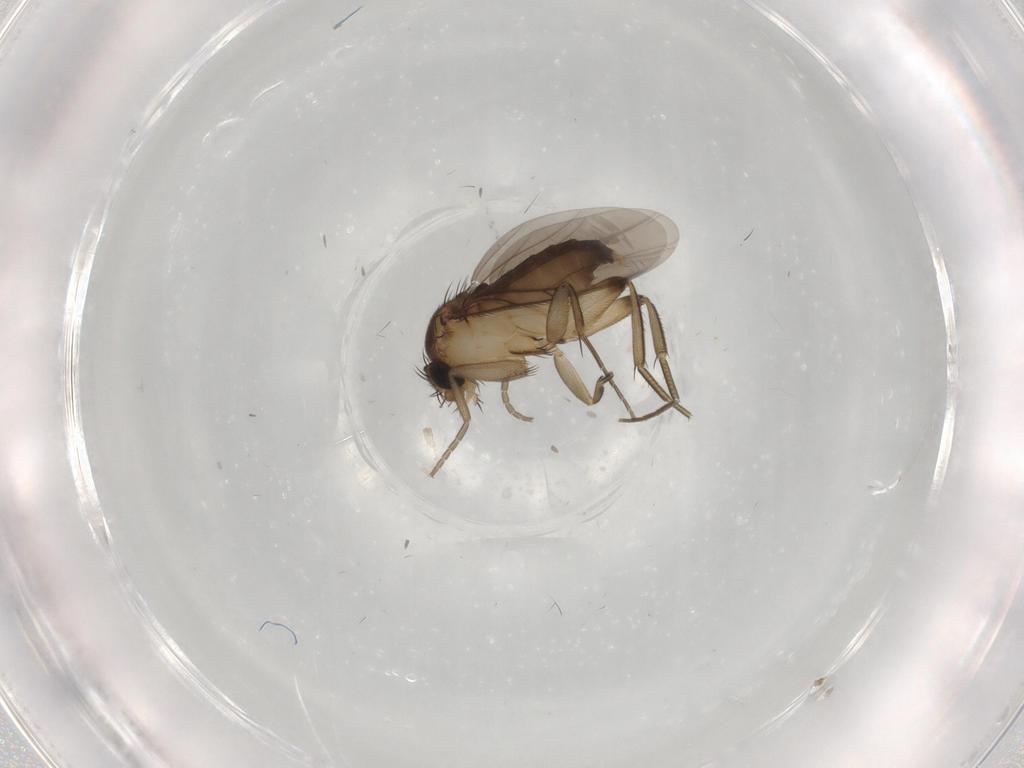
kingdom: Animalia
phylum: Arthropoda
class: Insecta
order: Diptera
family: Phoridae
